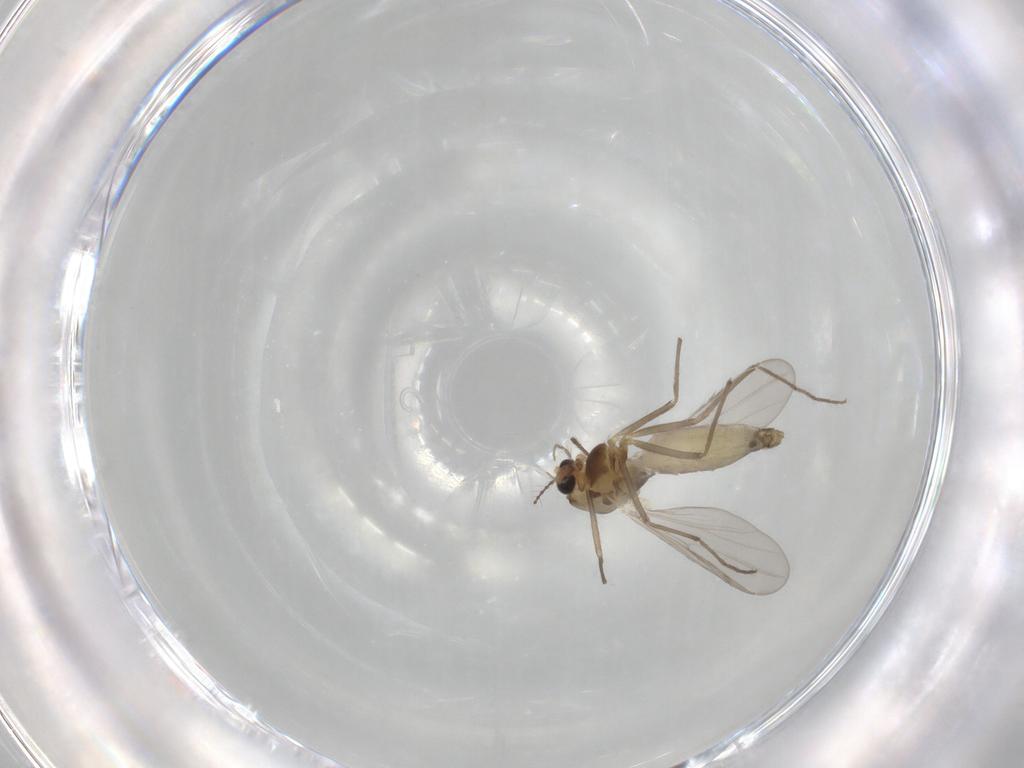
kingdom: Animalia
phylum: Arthropoda
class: Insecta
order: Diptera
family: Chironomidae
